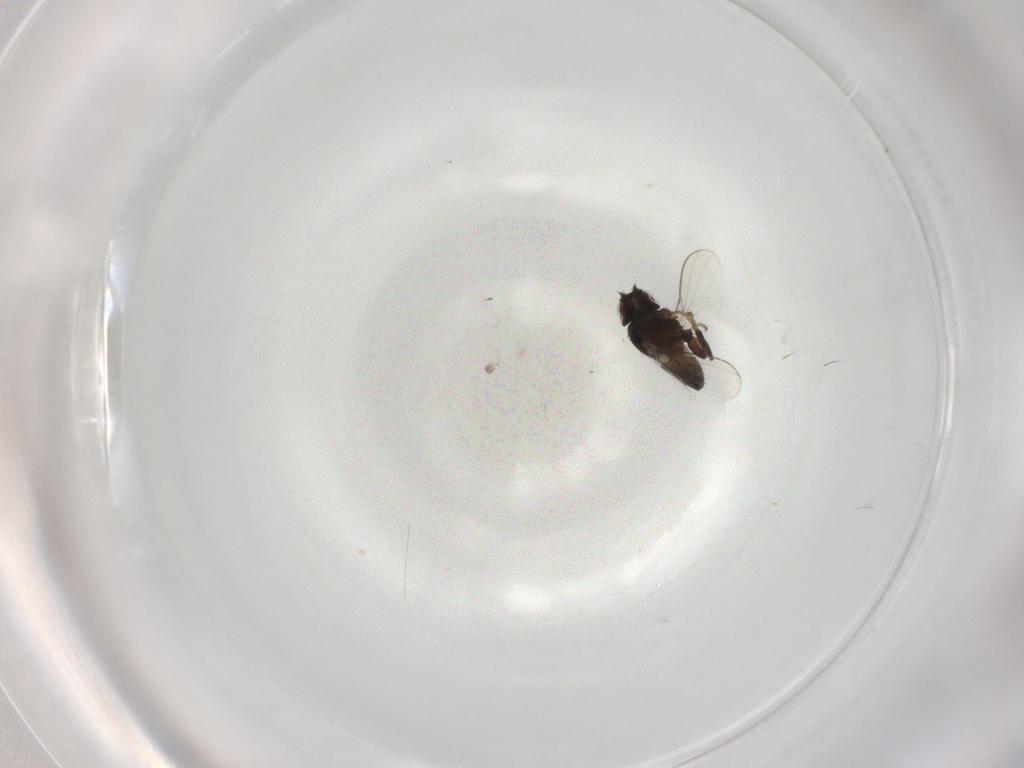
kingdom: Animalia
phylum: Arthropoda
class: Insecta
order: Diptera
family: Milichiidae
